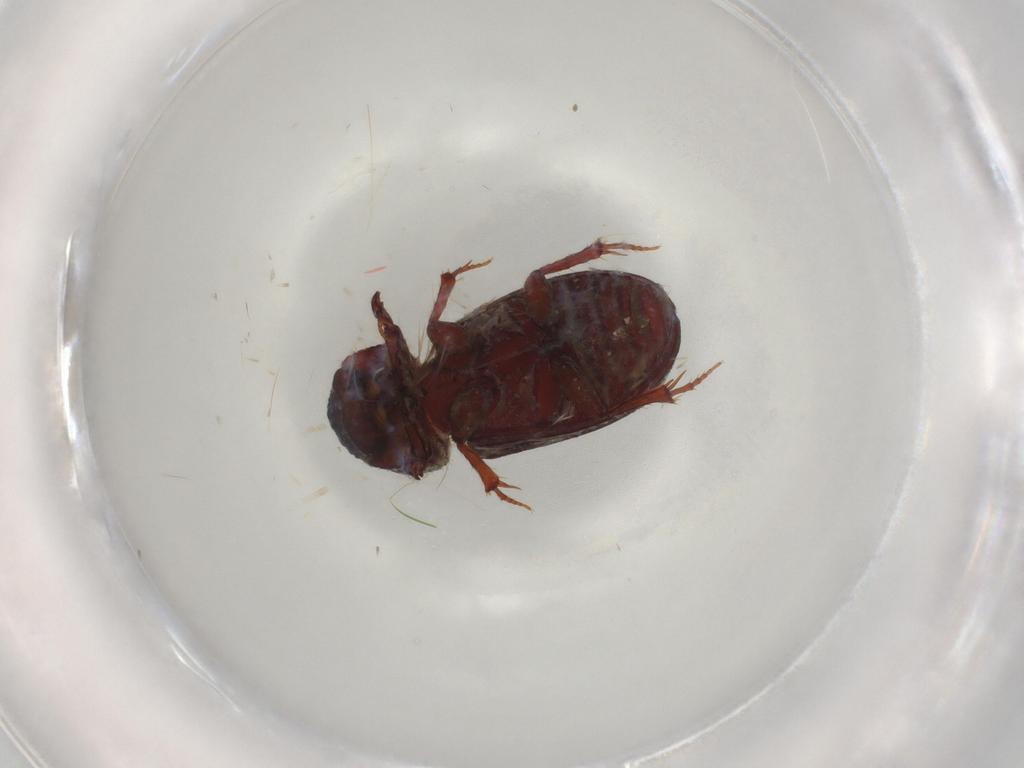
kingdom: Animalia
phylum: Arthropoda
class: Insecta
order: Coleoptera
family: Scarabaeidae
